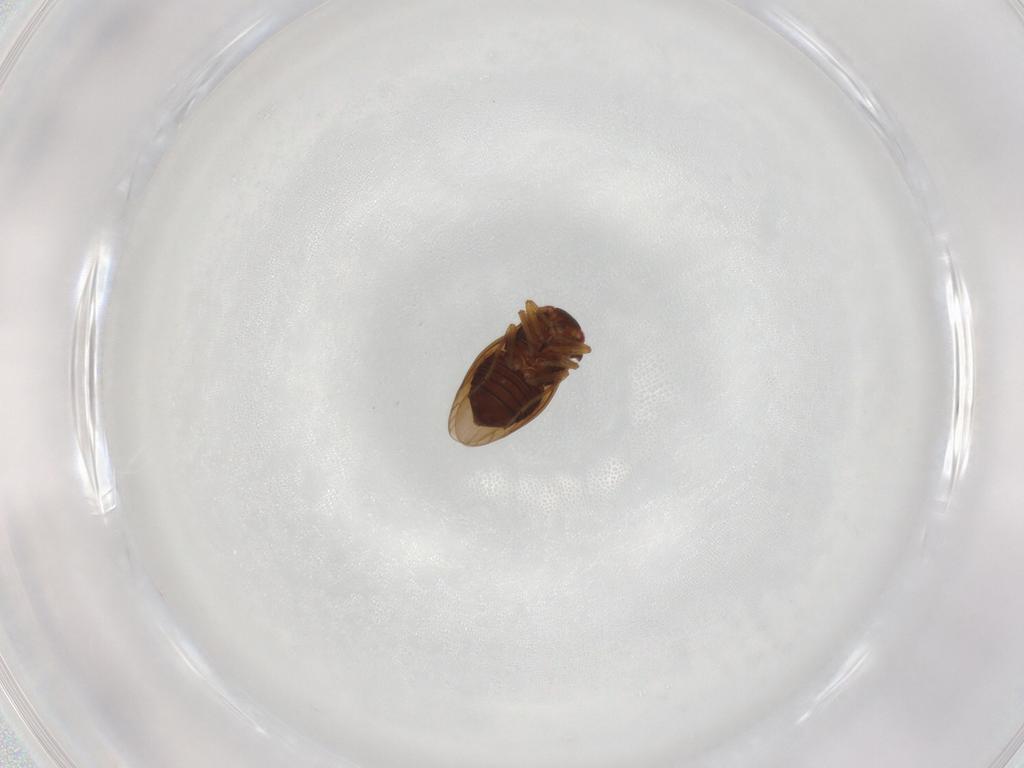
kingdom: Animalia
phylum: Arthropoda
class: Insecta
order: Hemiptera
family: Schizopteridae
